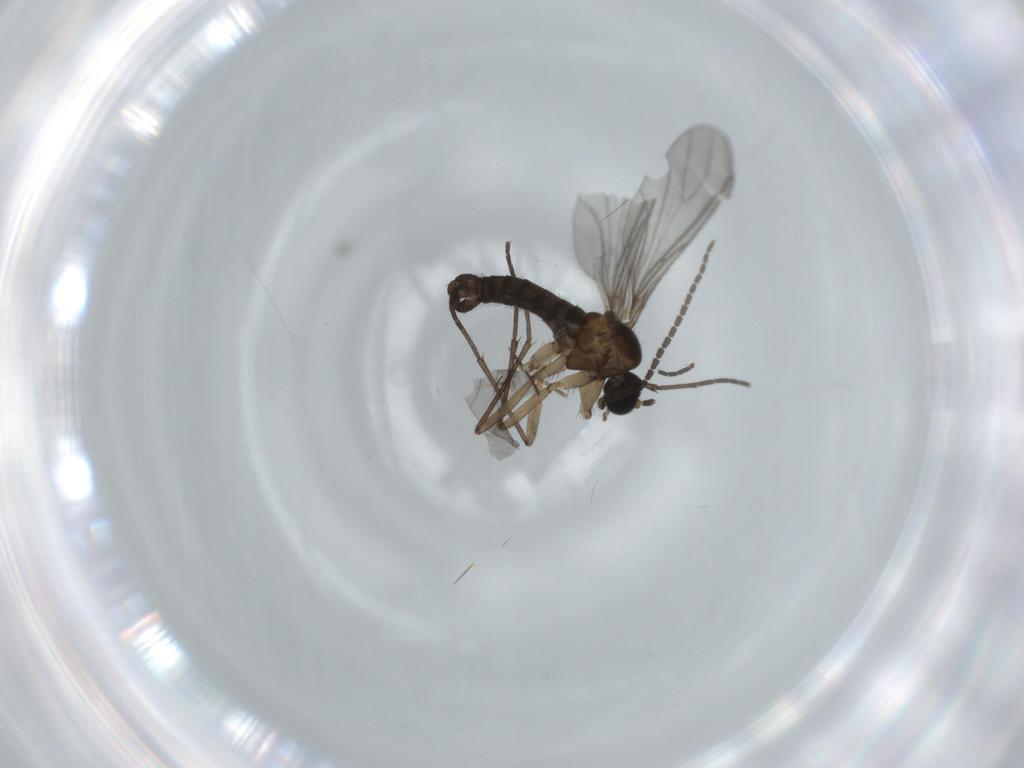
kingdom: Animalia
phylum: Arthropoda
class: Insecta
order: Diptera
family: Sciaridae
